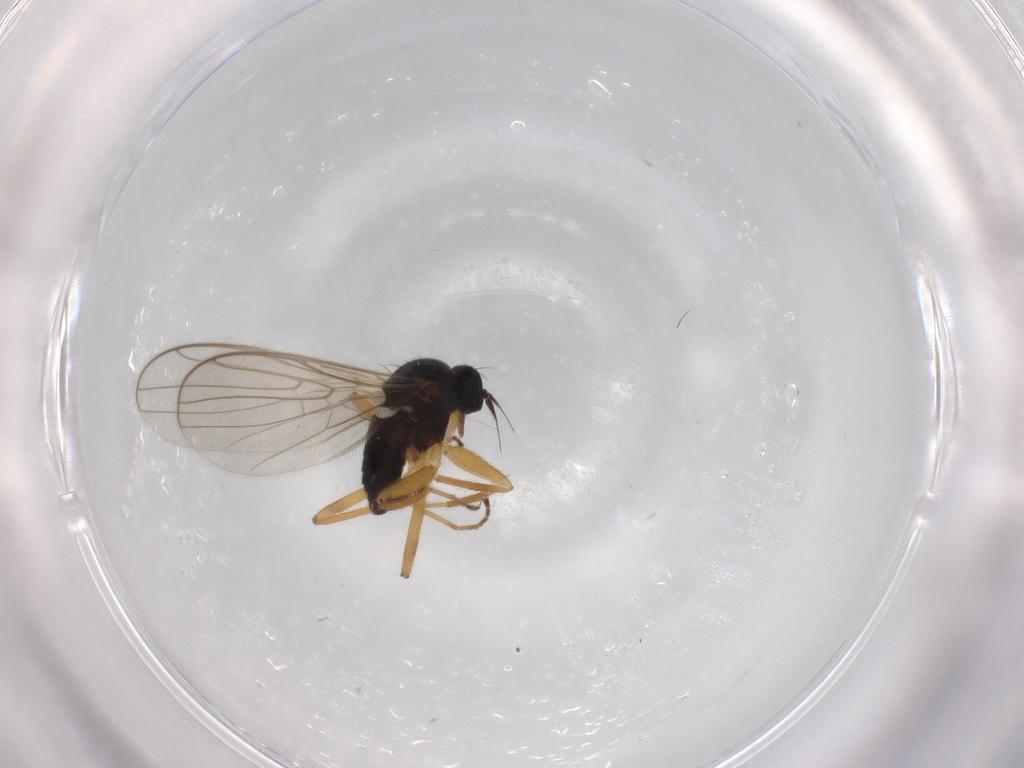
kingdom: Animalia
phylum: Arthropoda
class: Insecta
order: Diptera
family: Hybotidae
